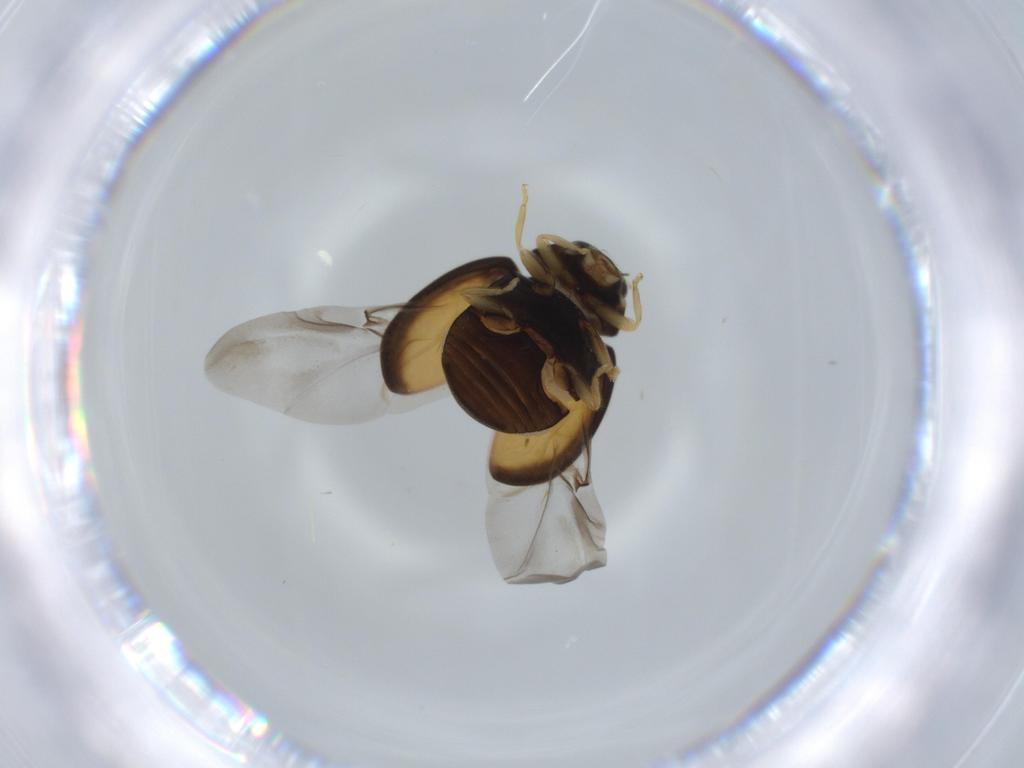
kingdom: Animalia
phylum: Arthropoda
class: Insecta
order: Coleoptera
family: Coccinellidae
